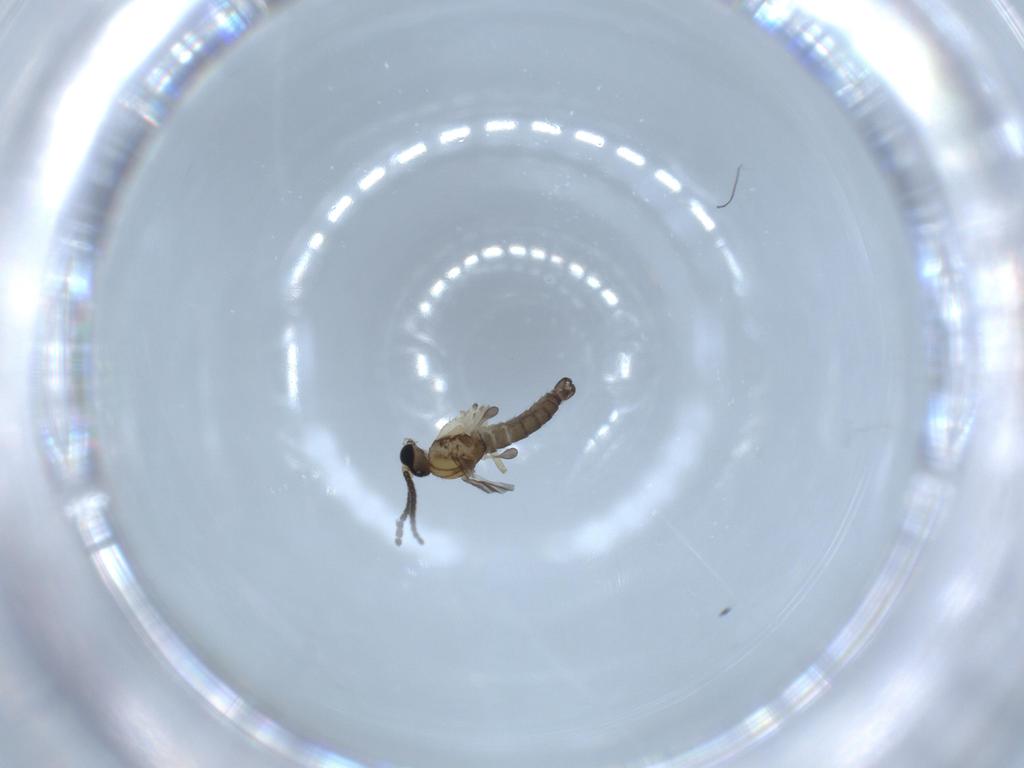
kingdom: Animalia
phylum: Arthropoda
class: Insecta
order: Diptera
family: Sciaridae
